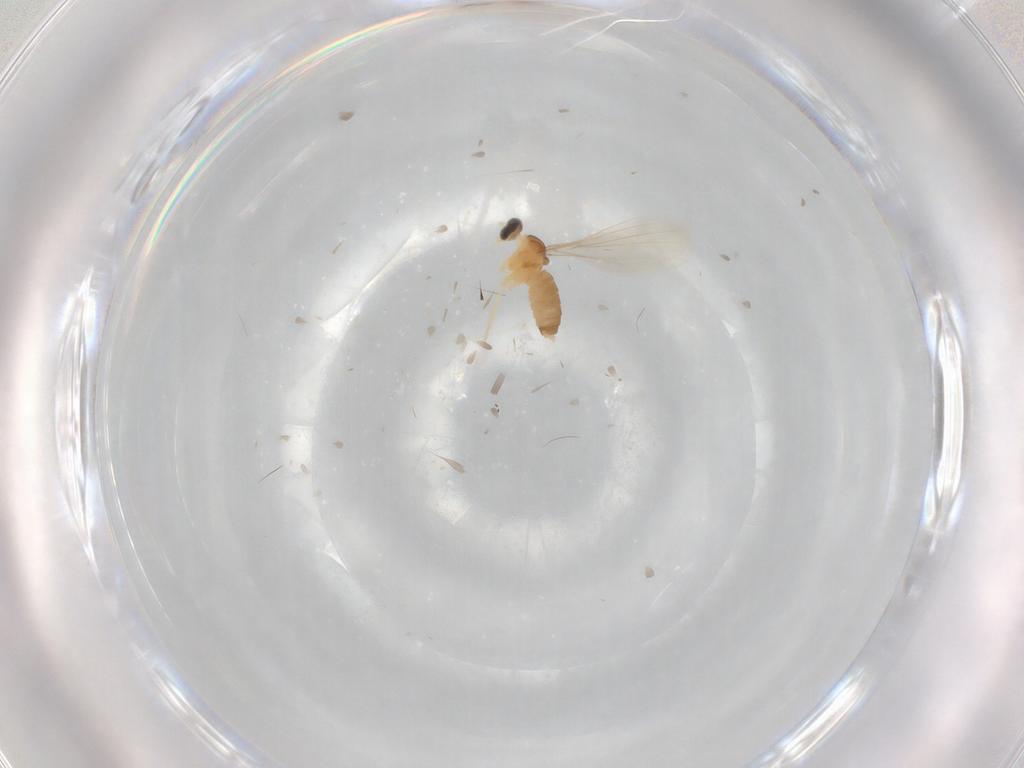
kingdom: Animalia
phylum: Arthropoda
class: Insecta
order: Diptera
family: Cecidomyiidae
